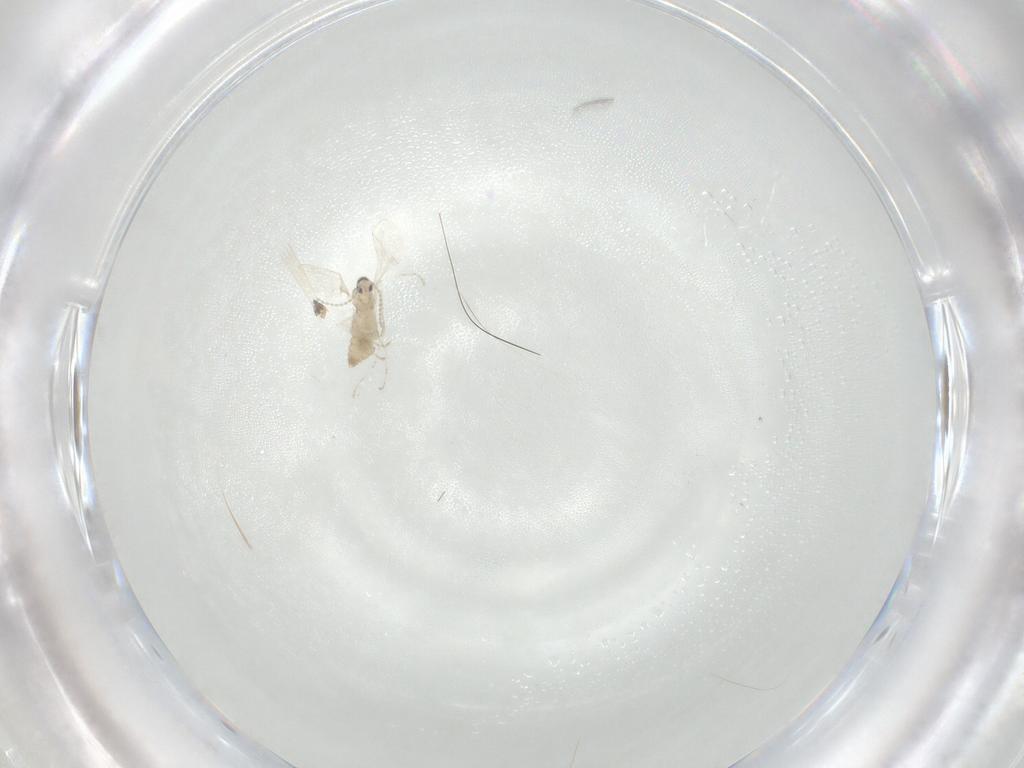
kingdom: Animalia
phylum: Arthropoda
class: Insecta
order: Diptera
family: Cecidomyiidae
